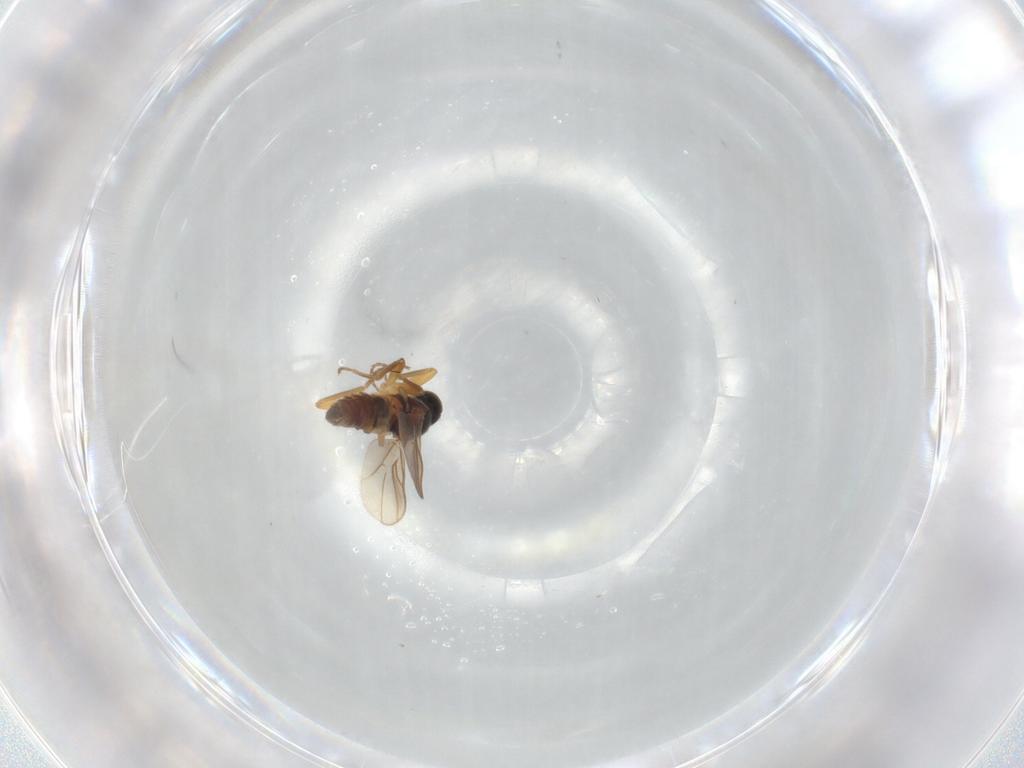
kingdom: Animalia
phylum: Arthropoda
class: Insecta
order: Diptera
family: Hybotidae
